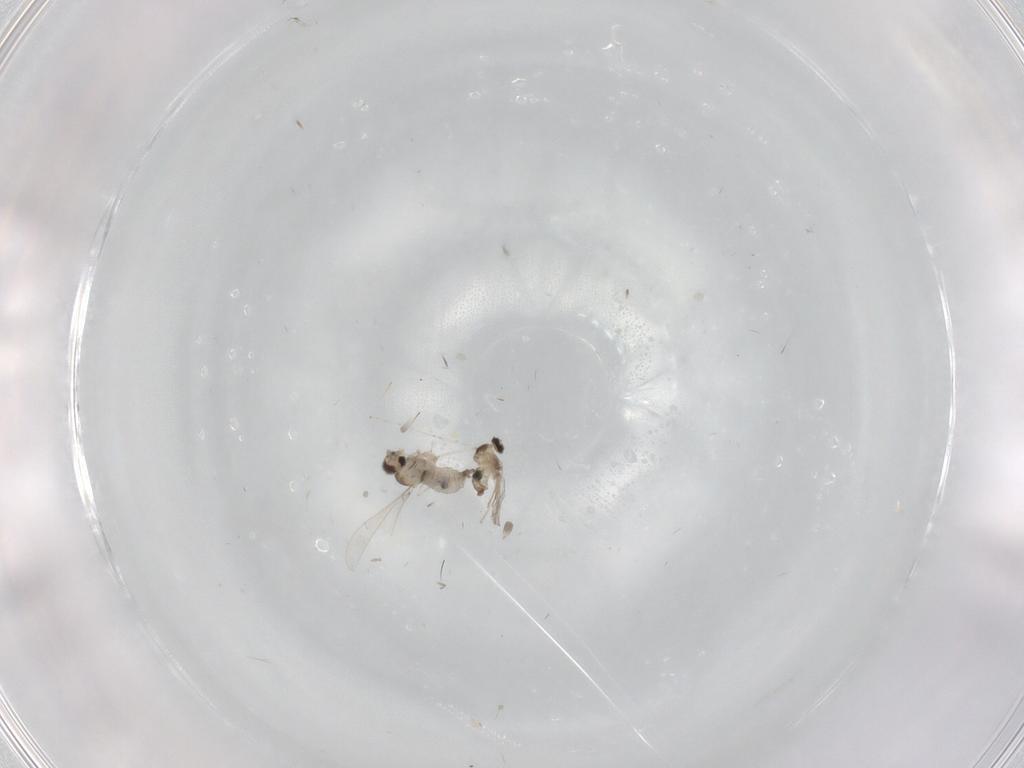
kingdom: Animalia
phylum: Arthropoda
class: Insecta
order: Diptera
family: Cecidomyiidae
